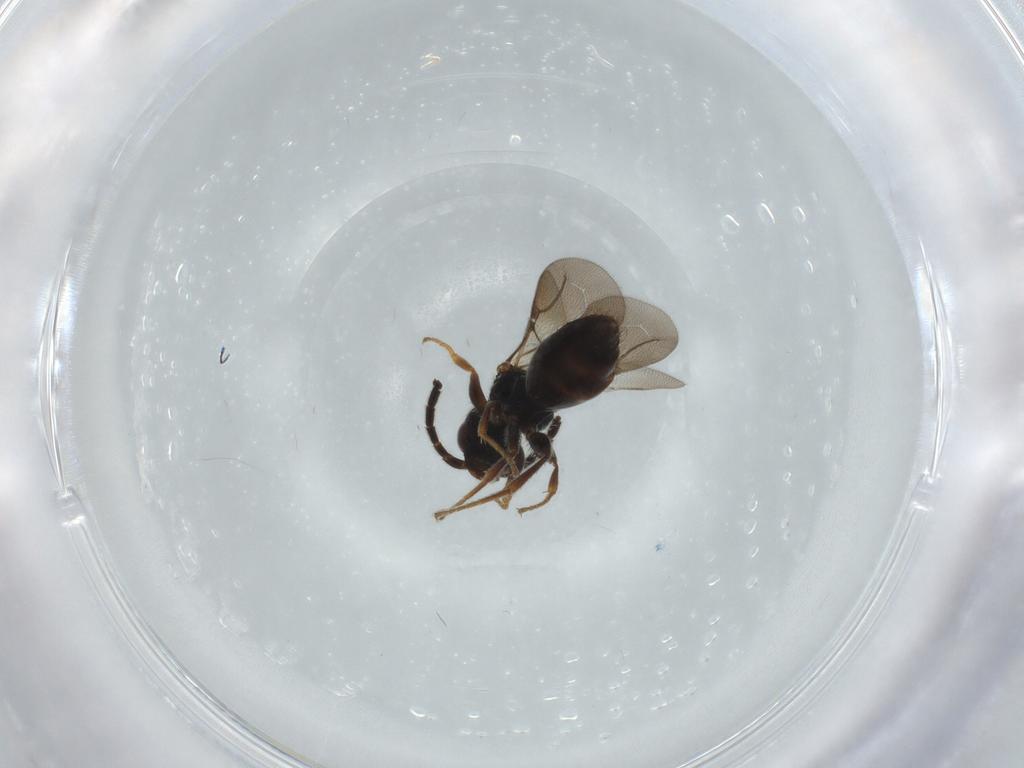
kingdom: Animalia
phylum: Arthropoda
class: Insecta
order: Hymenoptera
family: Bethylidae
